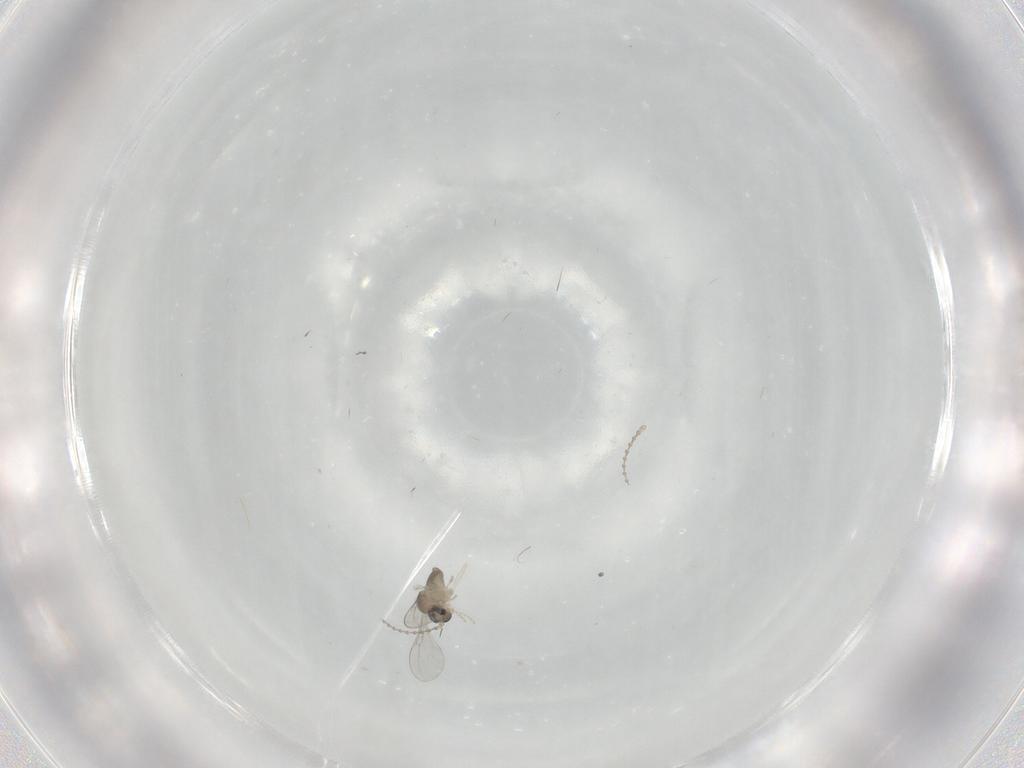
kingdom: Animalia
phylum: Arthropoda
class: Insecta
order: Diptera
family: Cecidomyiidae
